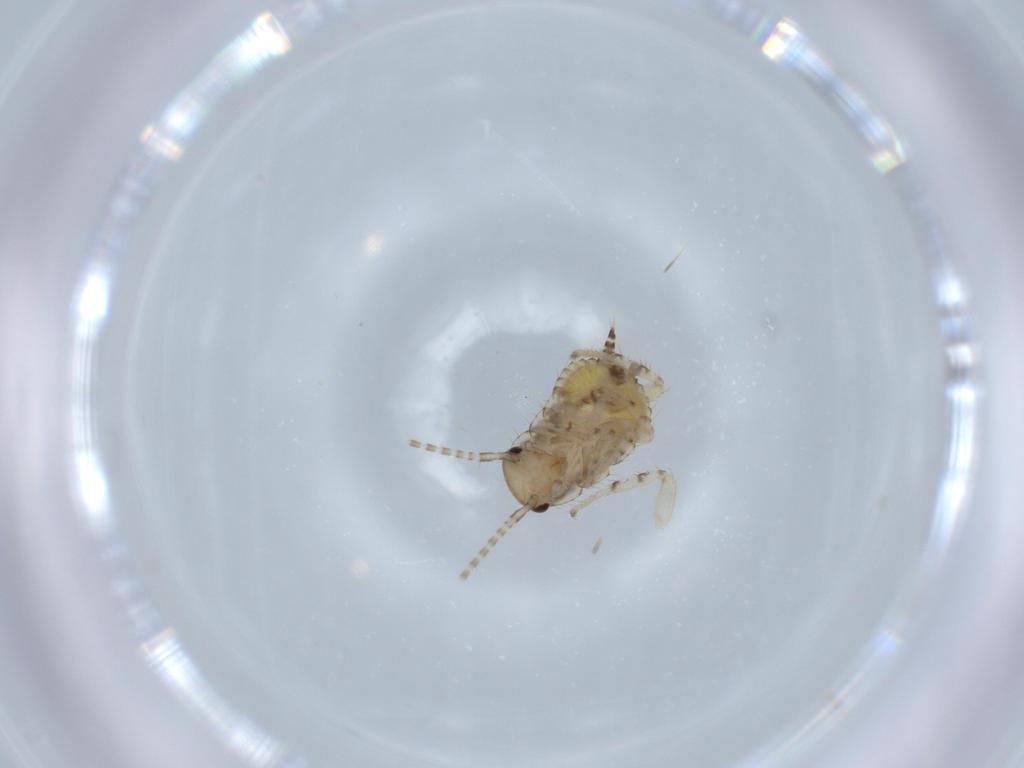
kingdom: Animalia
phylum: Arthropoda
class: Insecta
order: Blattodea
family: Ectobiidae
